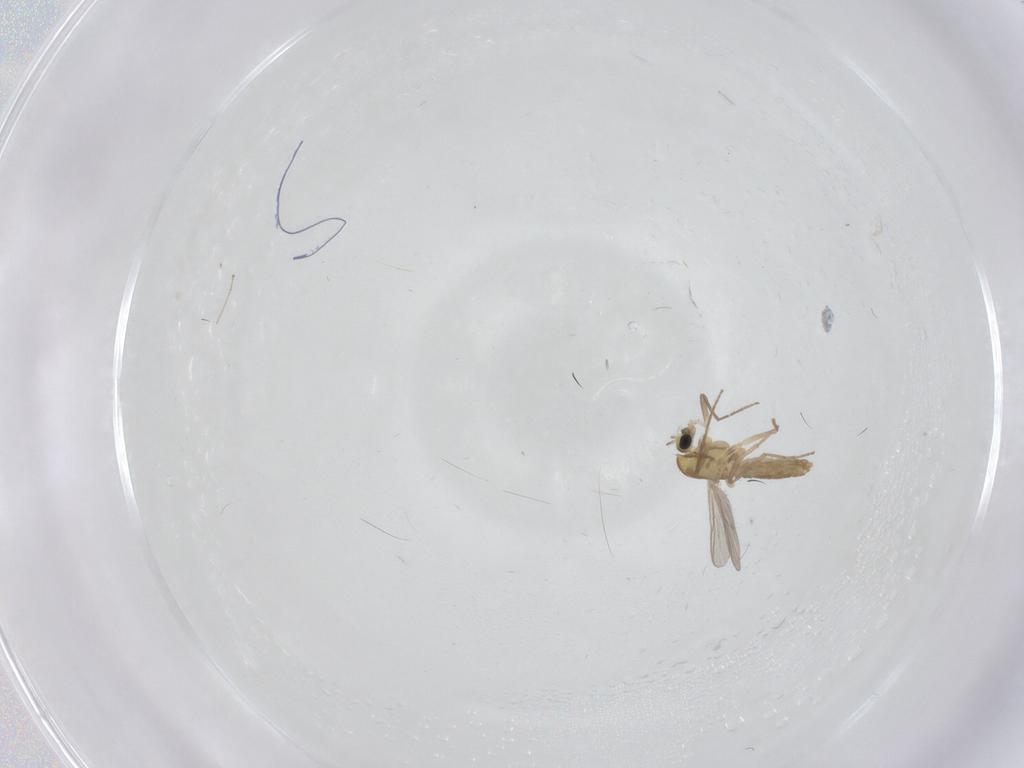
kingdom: Animalia
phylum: Arthropoda
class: Insecta
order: Diptera
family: Cecidomyiidae
